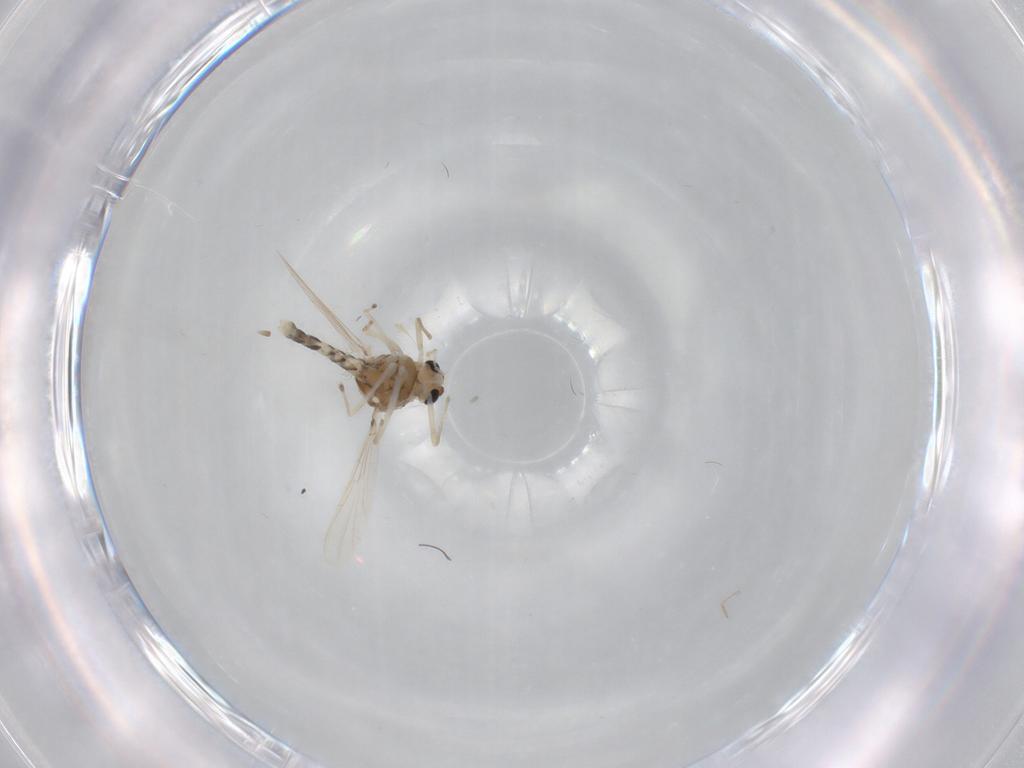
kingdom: Animalia
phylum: Arthropoda
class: Insecta
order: Diptera
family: Chironomidae
